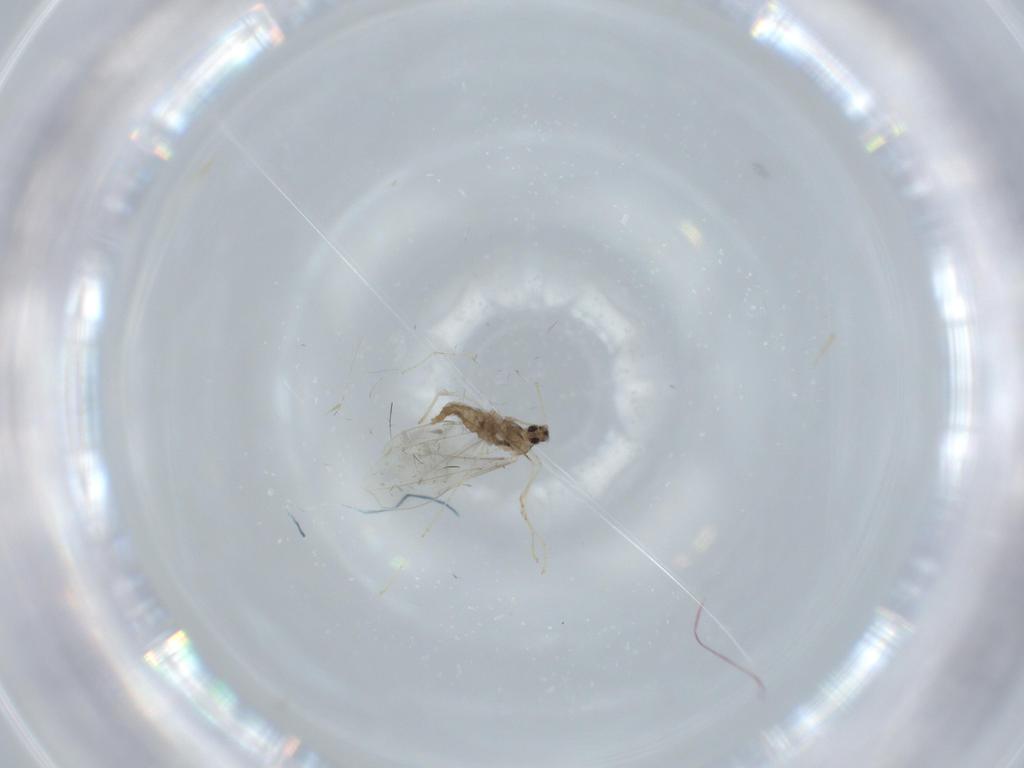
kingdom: Animalia
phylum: Arthropoda
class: Insecta
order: Diptera
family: Cecidomyiidae
